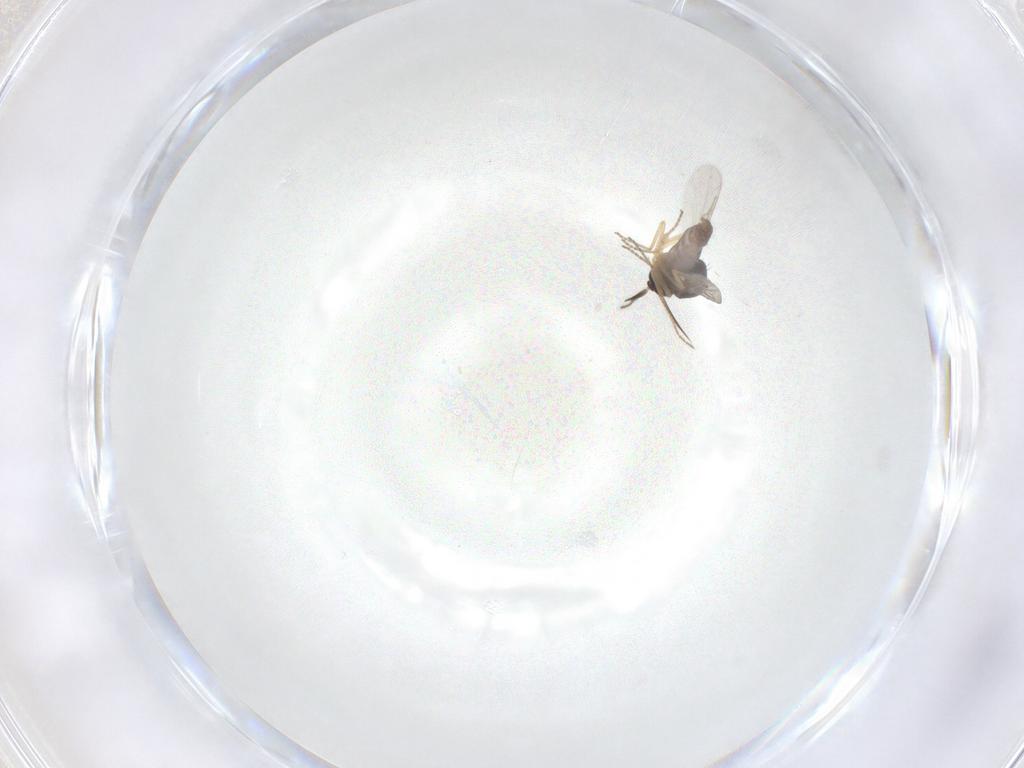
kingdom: Animalia
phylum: Arthropoda
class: Insecta
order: Diptera
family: Cecidomyiidae
